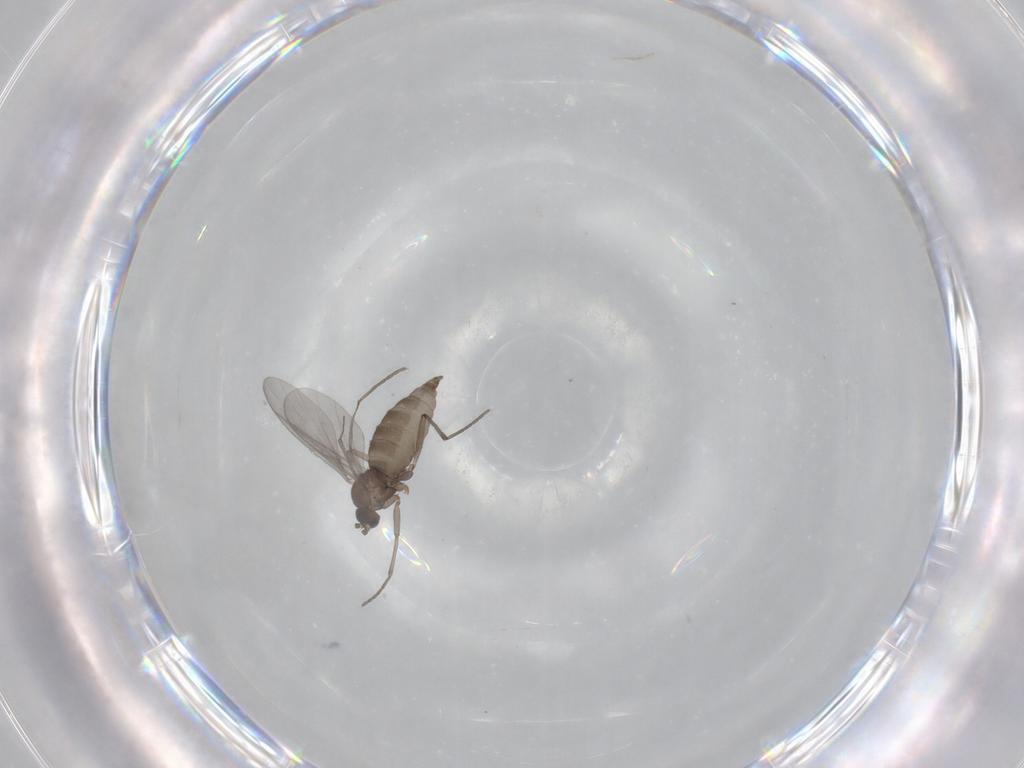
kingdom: Animalia
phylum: Arthropoda
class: Insecta
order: Diptera
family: Sciaridae
